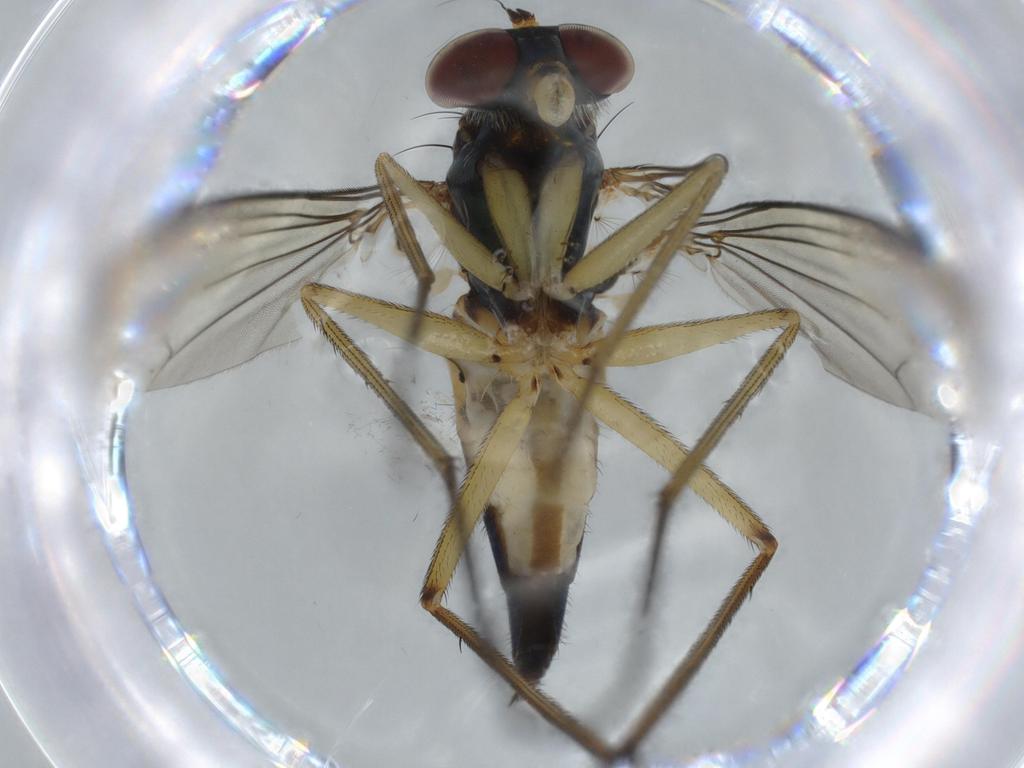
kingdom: Animalia
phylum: Arthropoda
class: Insecta
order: Diptera
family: Dolichopodidae
